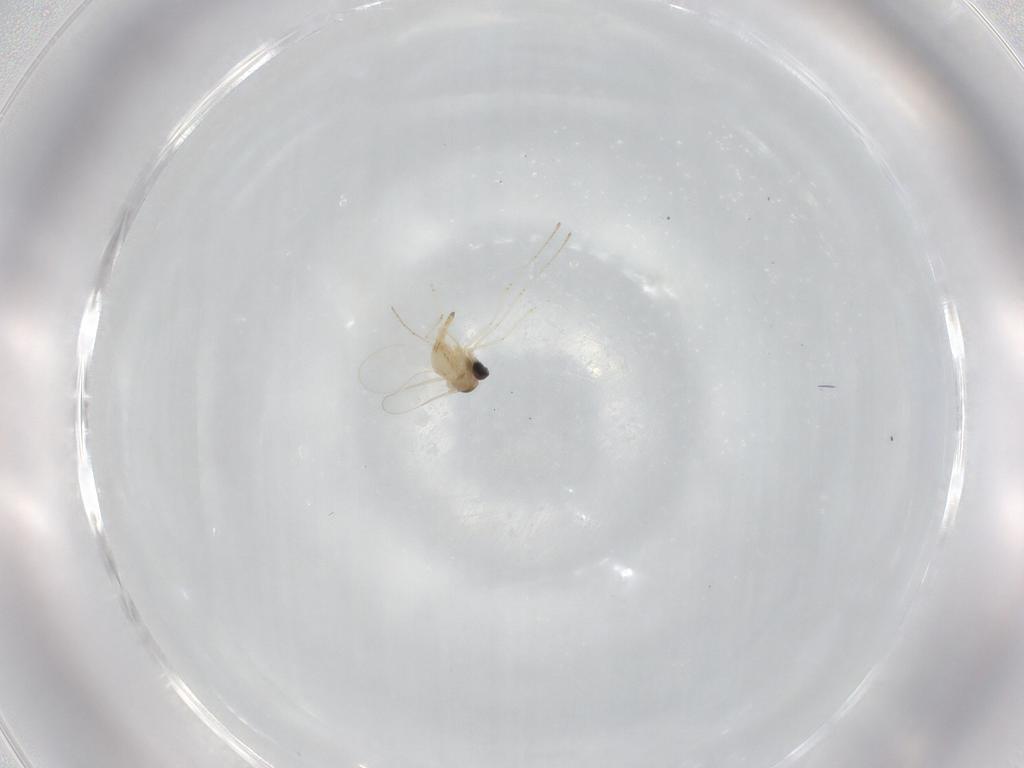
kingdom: Animalia
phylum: Arthropoda
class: Insecta
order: Diptera
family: Cecidomyiidae
